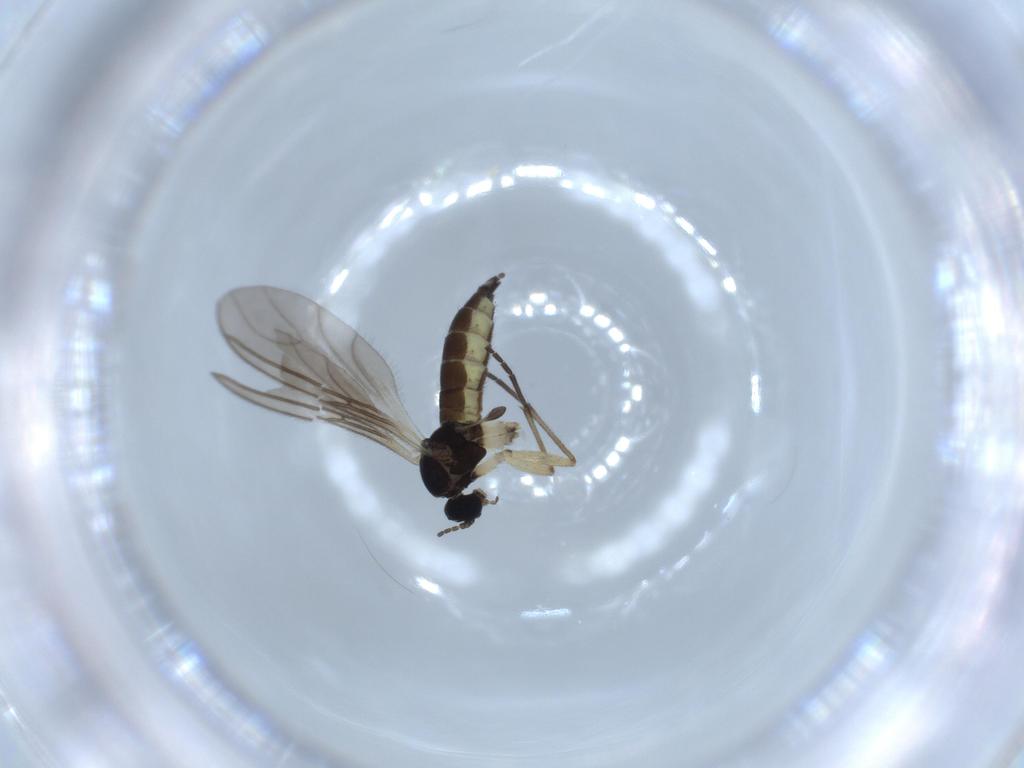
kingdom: Animalia
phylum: Arthropoda
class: Insecta
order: Diptera
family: Sciaridae
